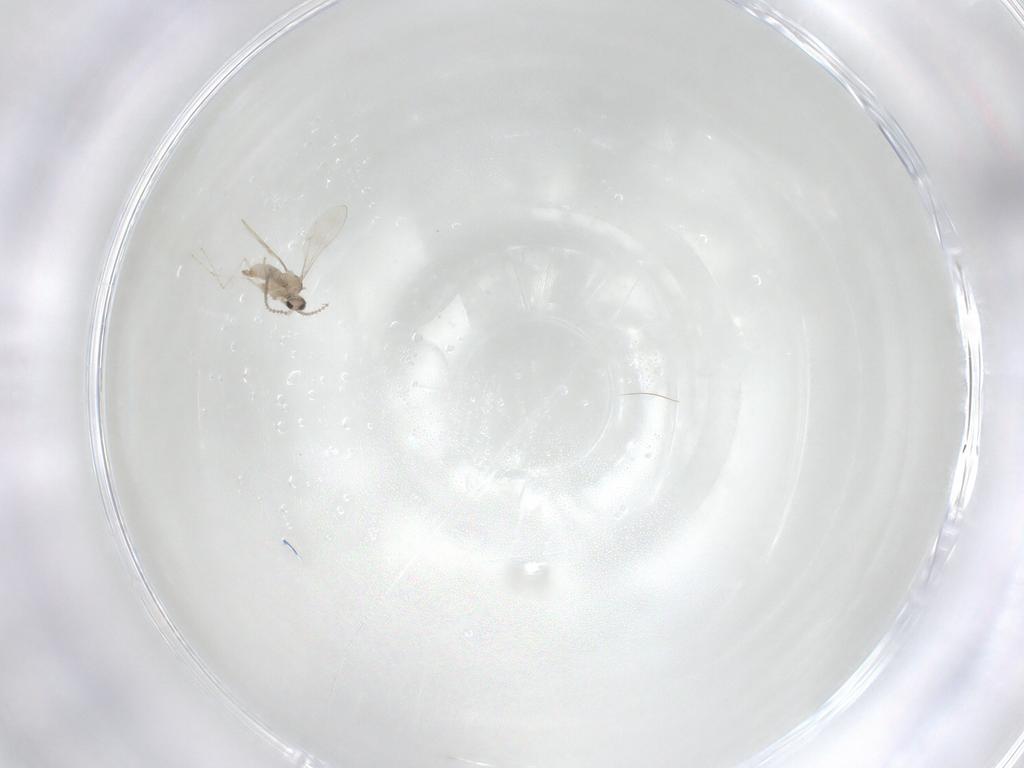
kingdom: Animalia
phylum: Arthropoda
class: Insecta
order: Diptera
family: Cecidomyiidae
